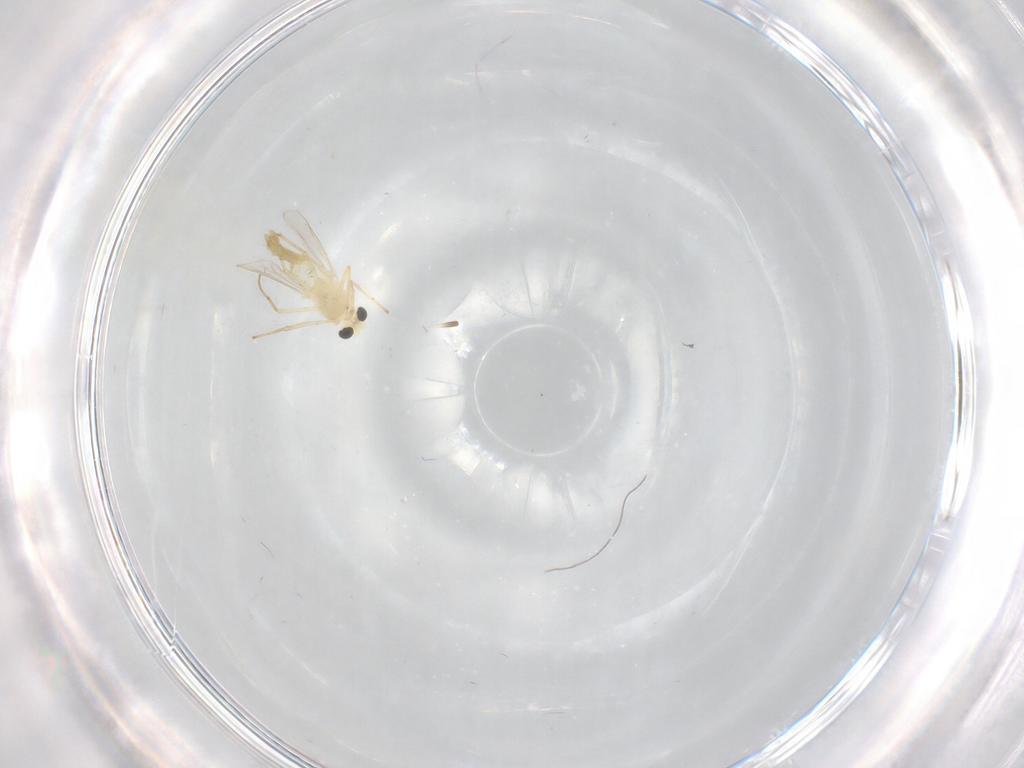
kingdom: Animalia
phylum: Arthropoda
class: Insecta
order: Diptera
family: Chironomidae
